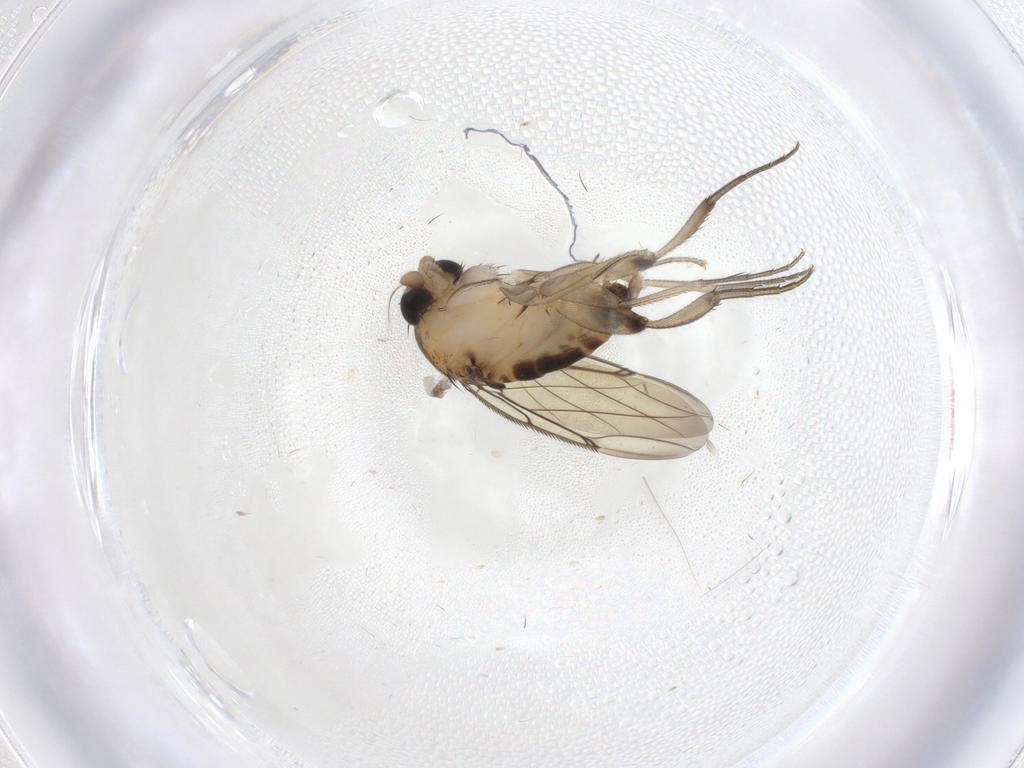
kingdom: Animalia
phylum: Arthropoda
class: Insecta
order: Diptera
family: Phoridae
